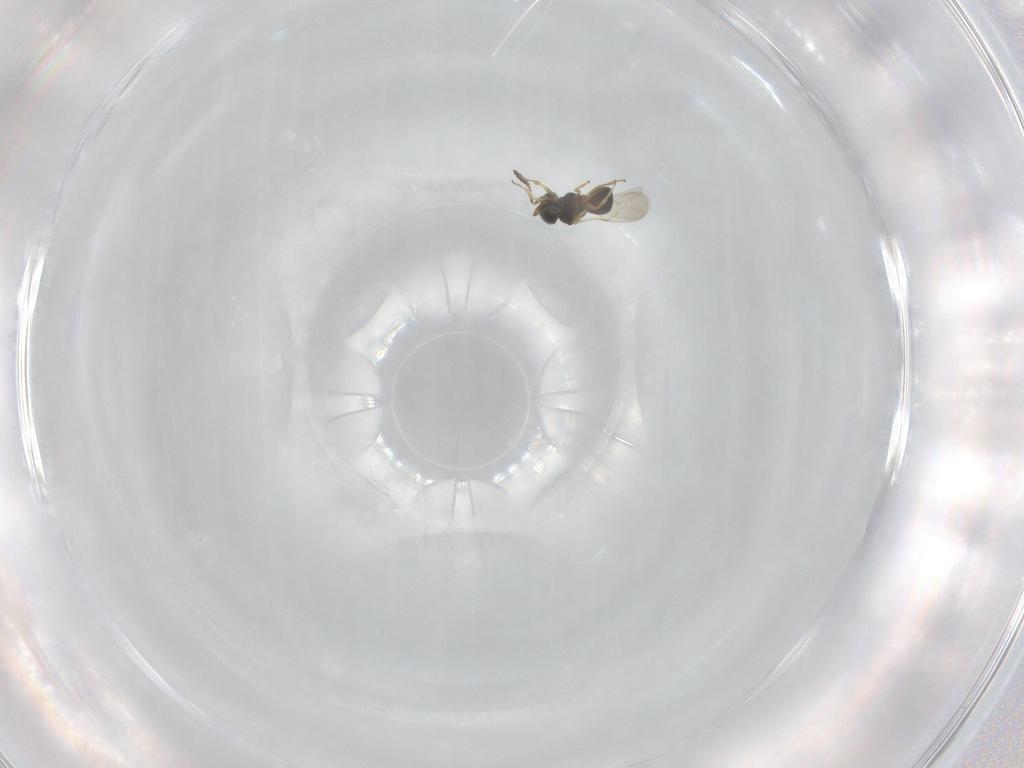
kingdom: Animalia
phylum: Arthropoda
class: Insecta
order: Hymenoptera
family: Scelionidae
